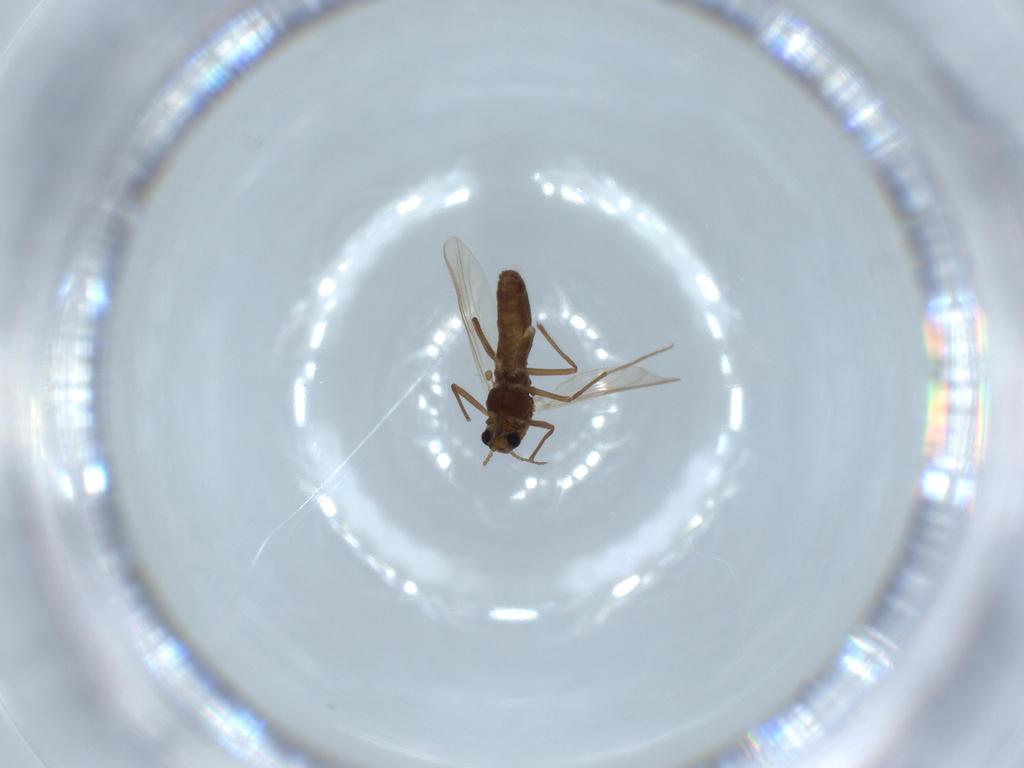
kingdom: Animalia
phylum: Arthropoda
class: Insecta
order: Diptera
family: Chironomidae
